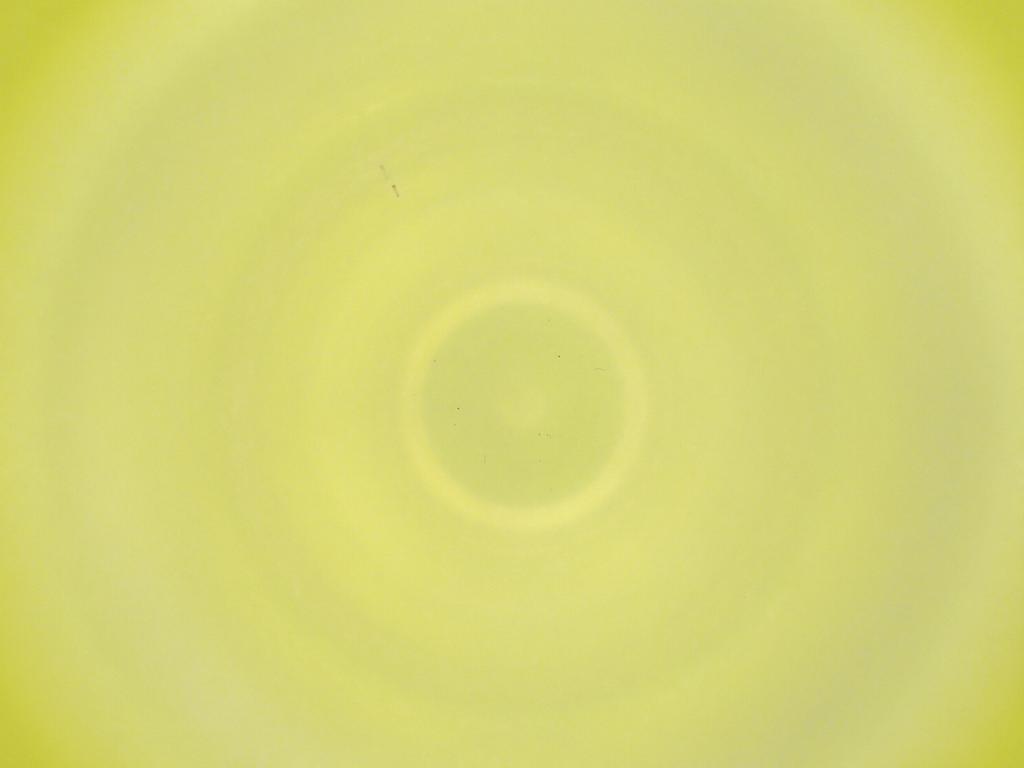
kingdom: Animalia
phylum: Arthropoda
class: Insecta
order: Diptera
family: Cecidomyiidae
